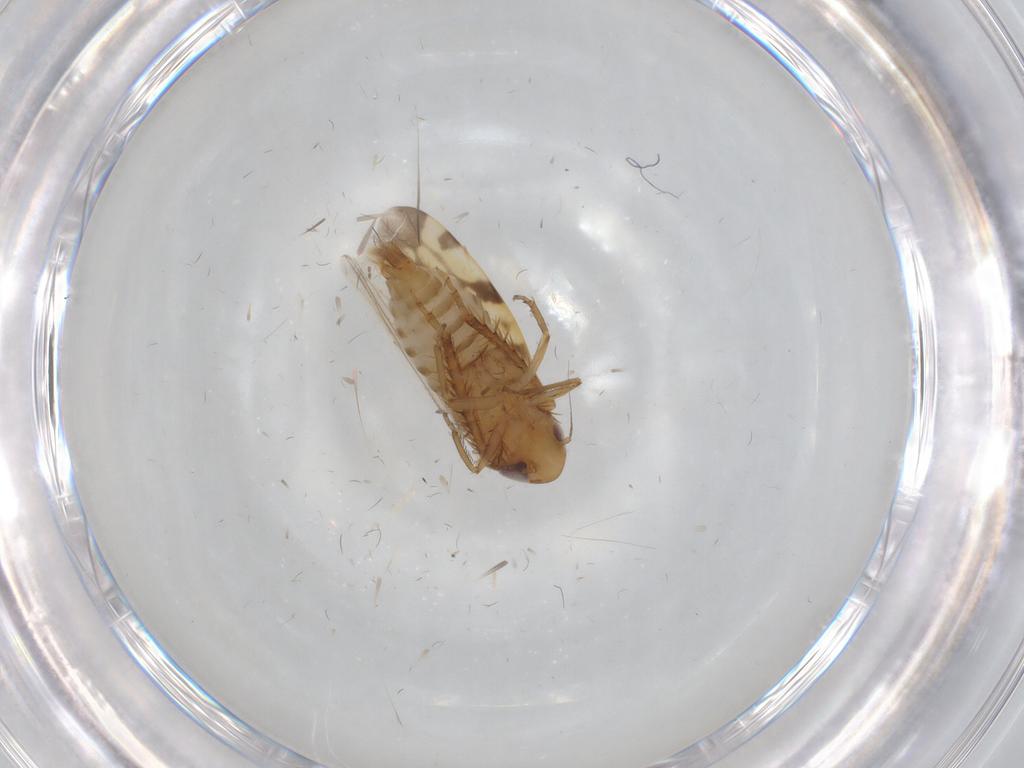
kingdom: Animalia
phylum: Arthropoda
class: Insecta
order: Hemiptera
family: Cicadellidae
